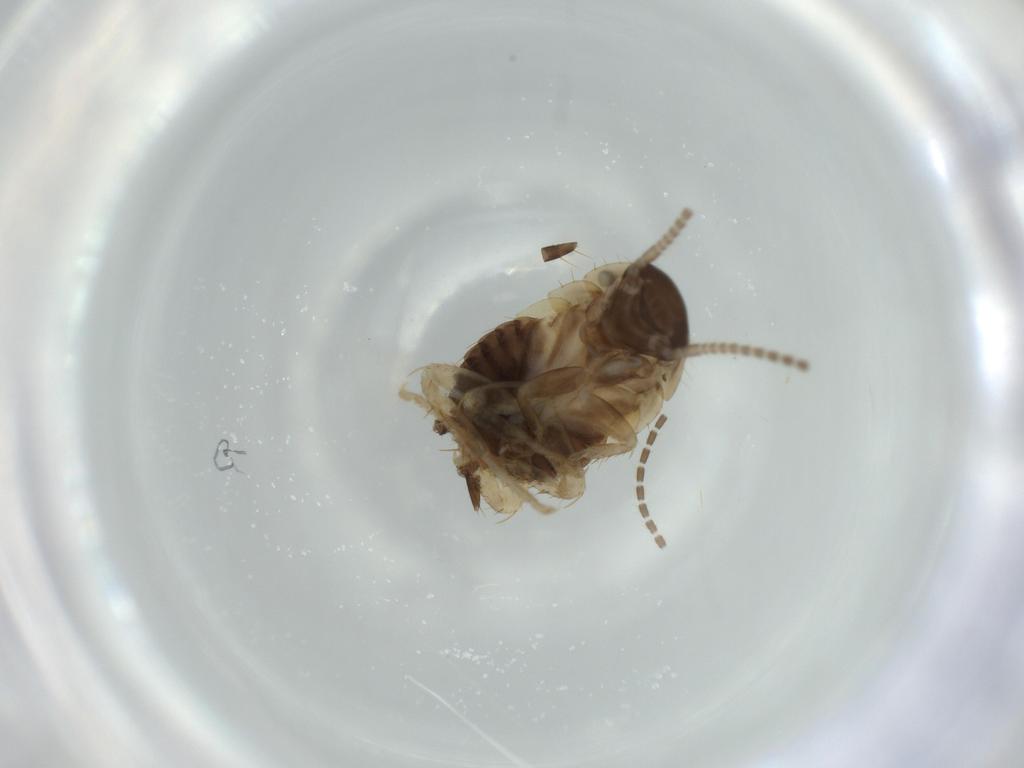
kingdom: Animalia
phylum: Arthropoda
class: Insecta
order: Blattodea
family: Ectobiidae
